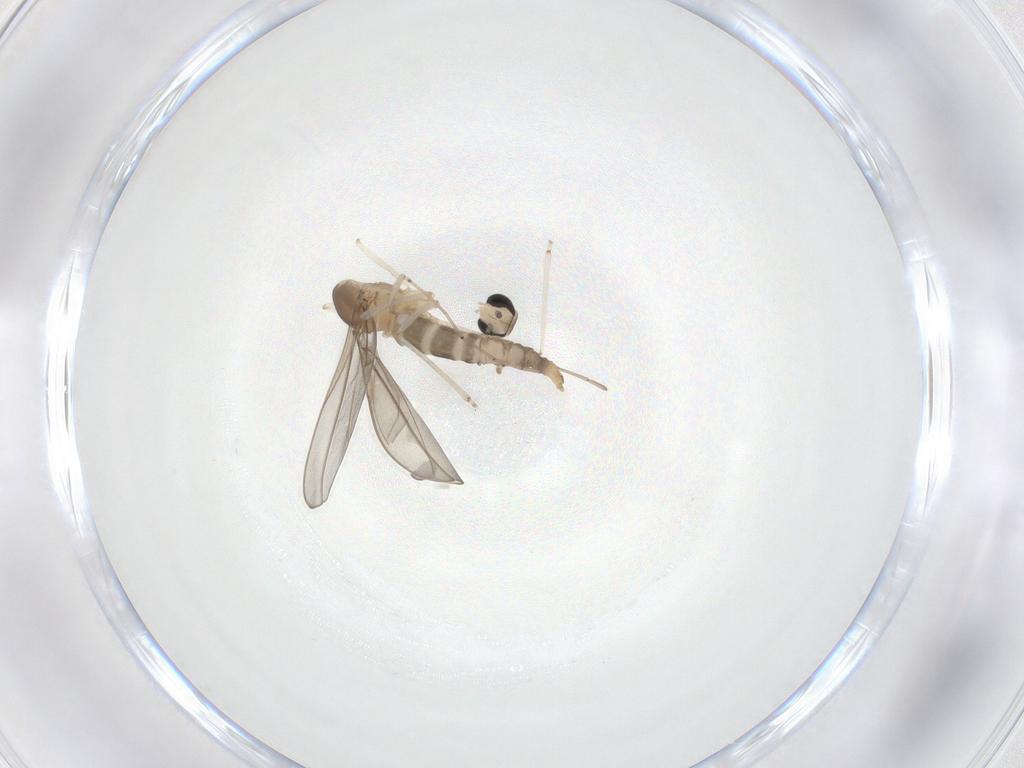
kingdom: Animalia
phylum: Arthropoda
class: Insecta
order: Diptera
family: Cecidomyiidae
